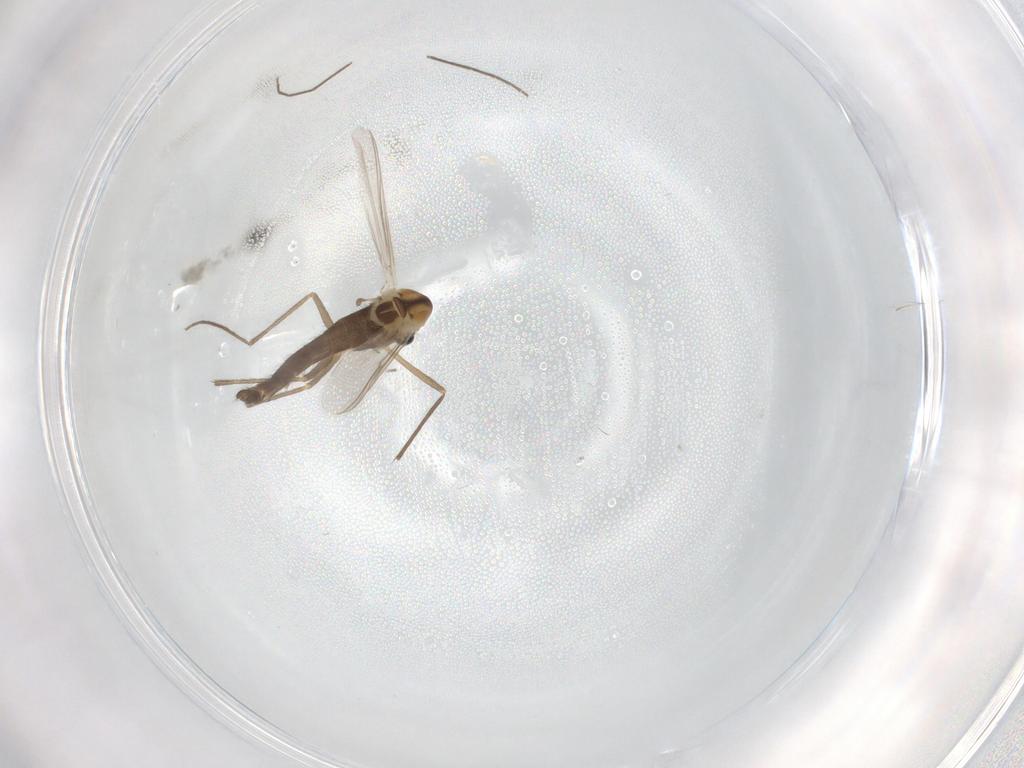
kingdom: Animalia
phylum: Arthropoda
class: Insecta
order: Diptera
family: Chironomidae
